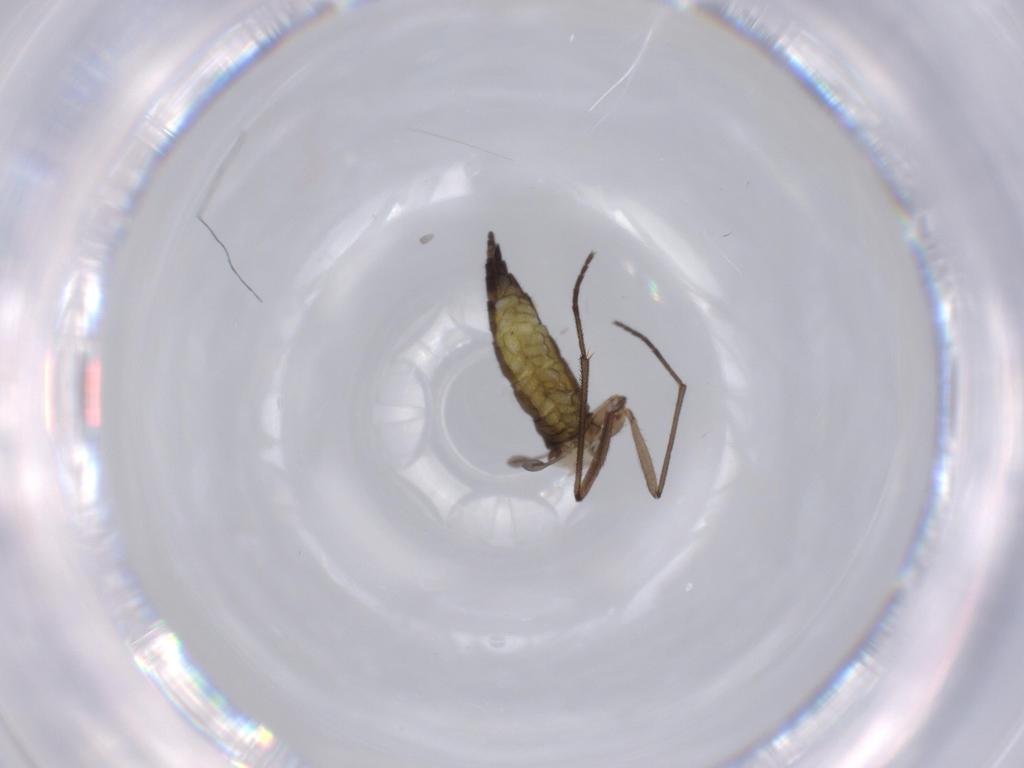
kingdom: Animalia
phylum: Arthropoda
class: Insecta
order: Diptera
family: Sciaridae
